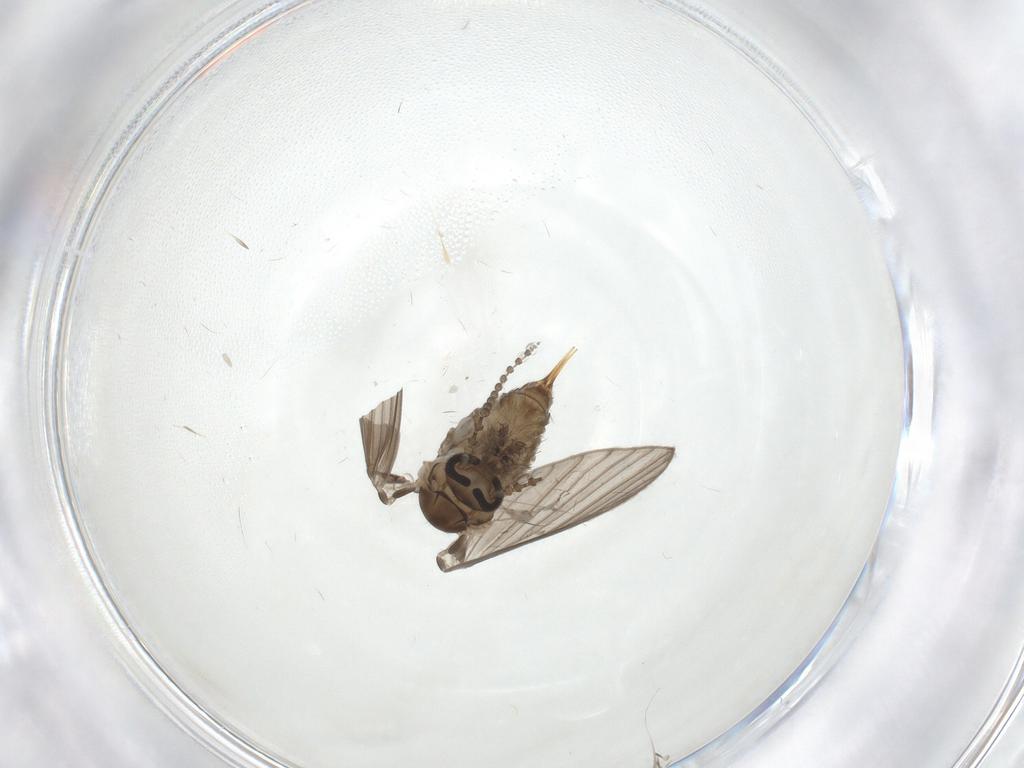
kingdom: Animalia
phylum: Arthropoda
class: Insecta
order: Diptera
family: Psychodidae
